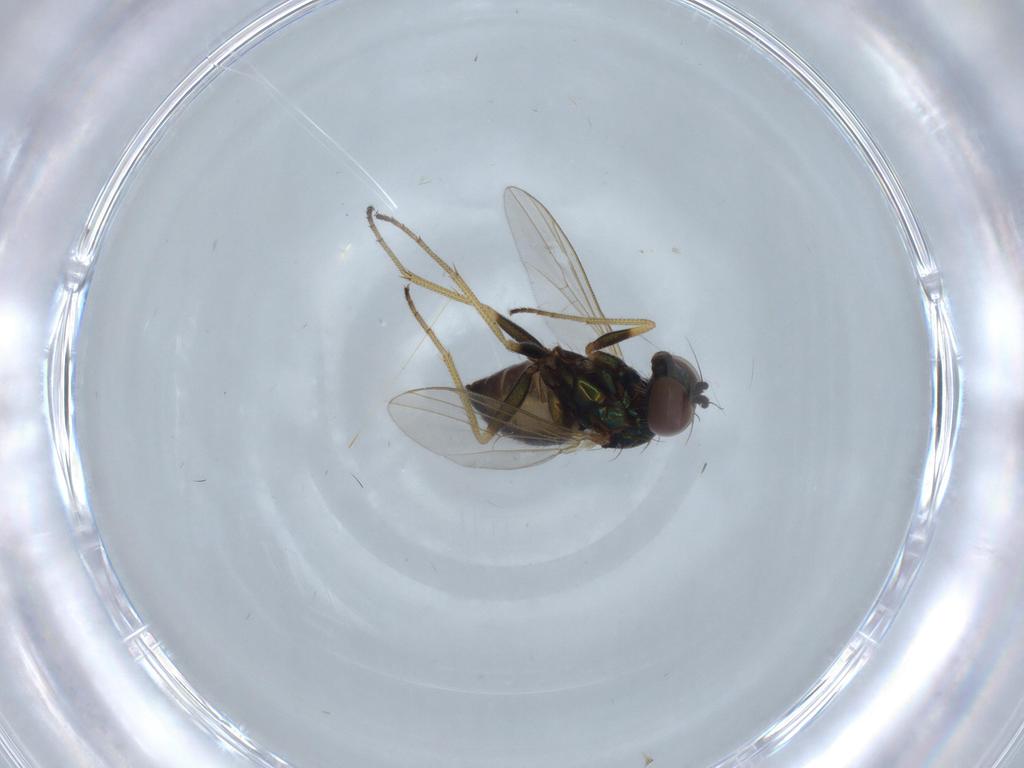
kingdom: Animalia
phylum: Arthropoda
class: Insecta
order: Diptera
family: Dolichopodidae
